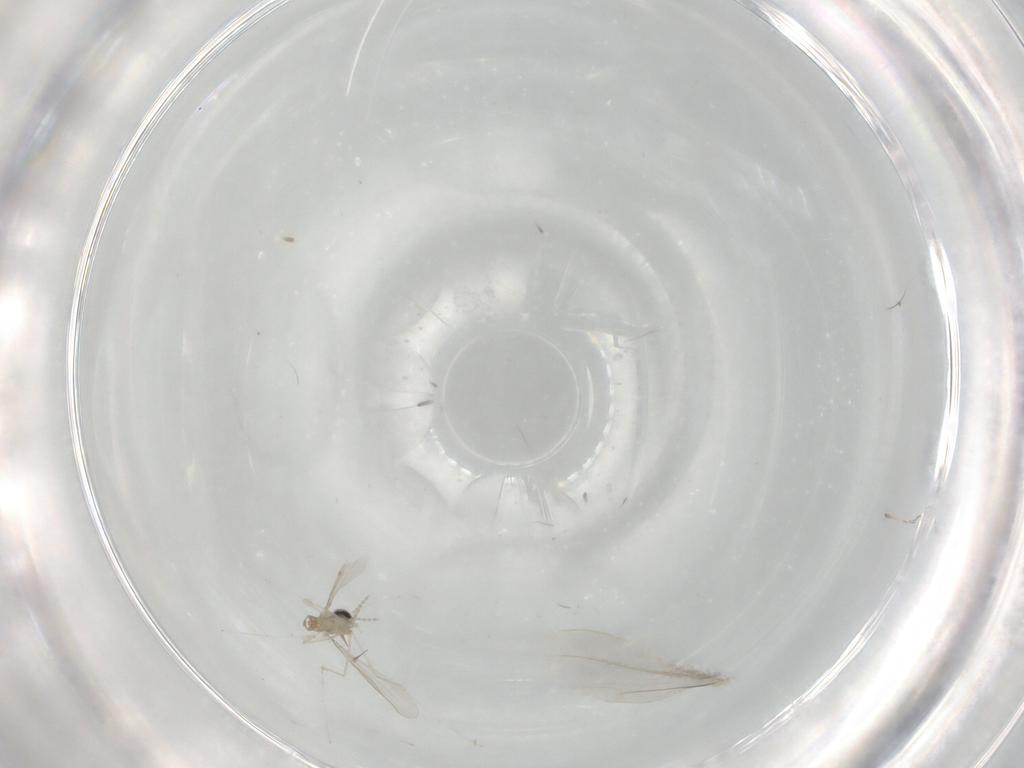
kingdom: Animalia
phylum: Arthropoda
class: Insecta
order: Diptera
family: Cecidomyiidae
